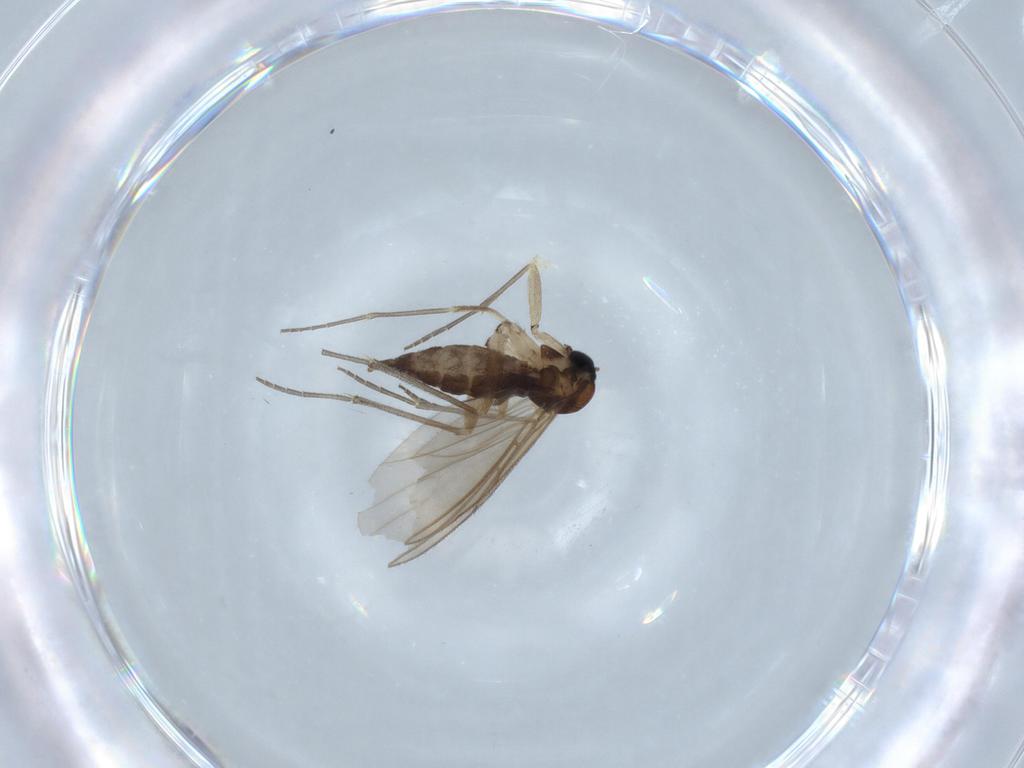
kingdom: Animalia
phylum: Arthropoda
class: Insecta
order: Diptera
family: Sciaridae
